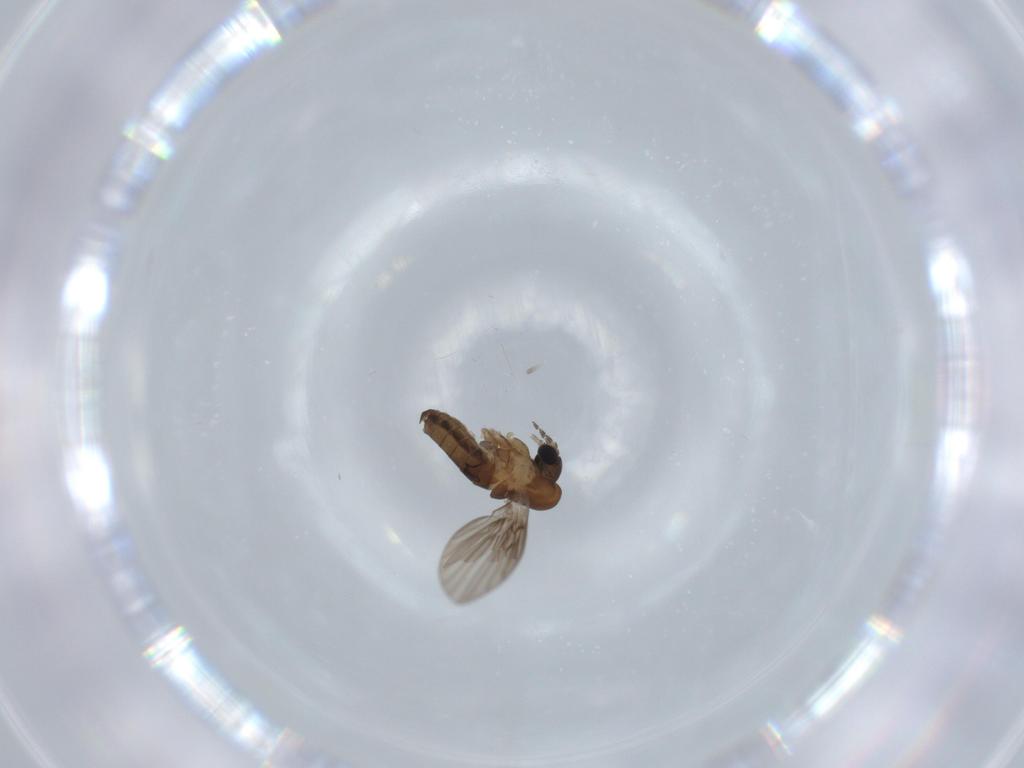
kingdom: Animalia
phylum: Arthropoda
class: Insecta
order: Diptera
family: Psychodidae
